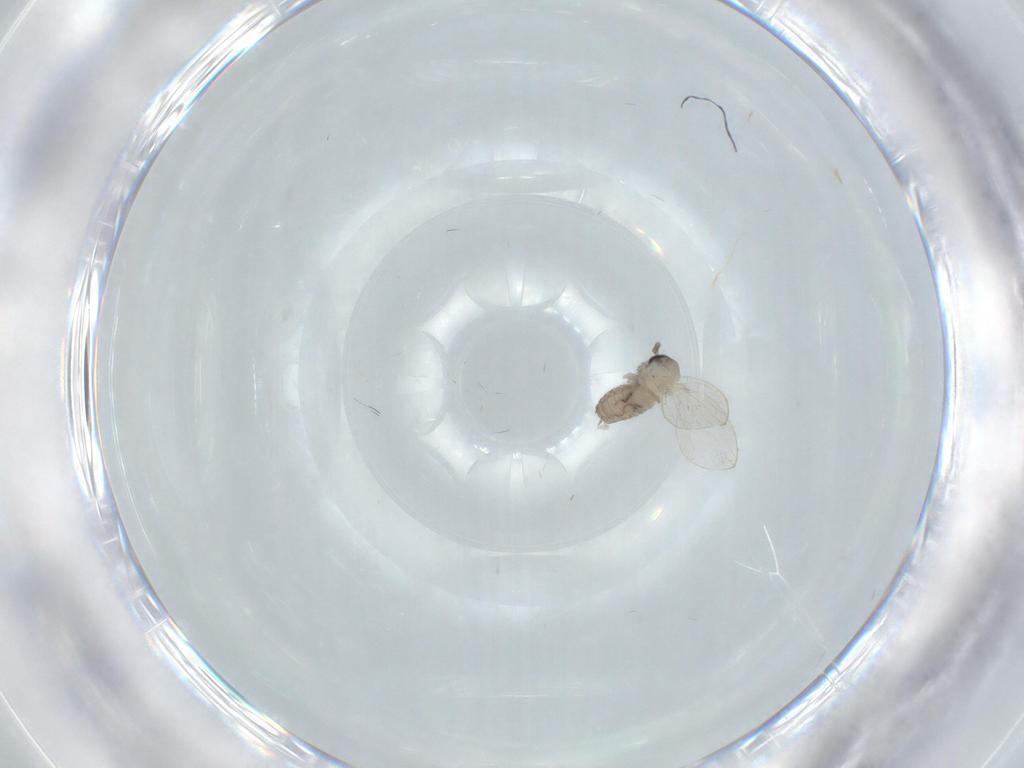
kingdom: Animalia
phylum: Arthropoda
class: Insecta
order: Diptera
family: Psychodidae
